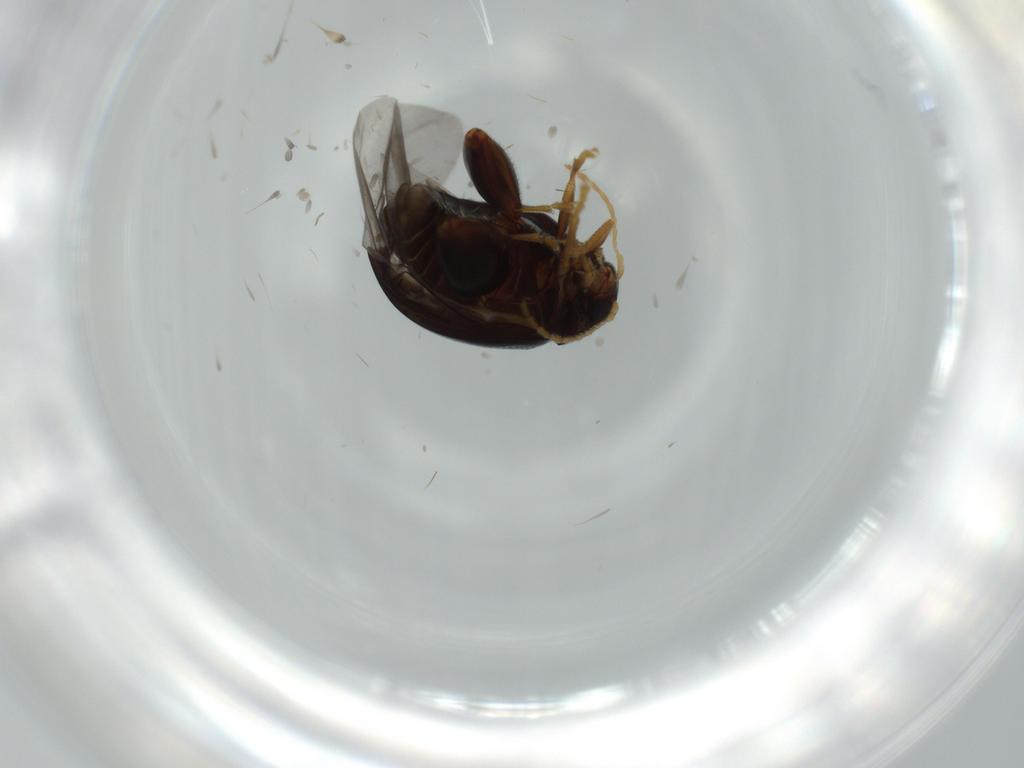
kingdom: Animalia
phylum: Arthropoda
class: Insecta
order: Coleoptera
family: Chrysomelidae
